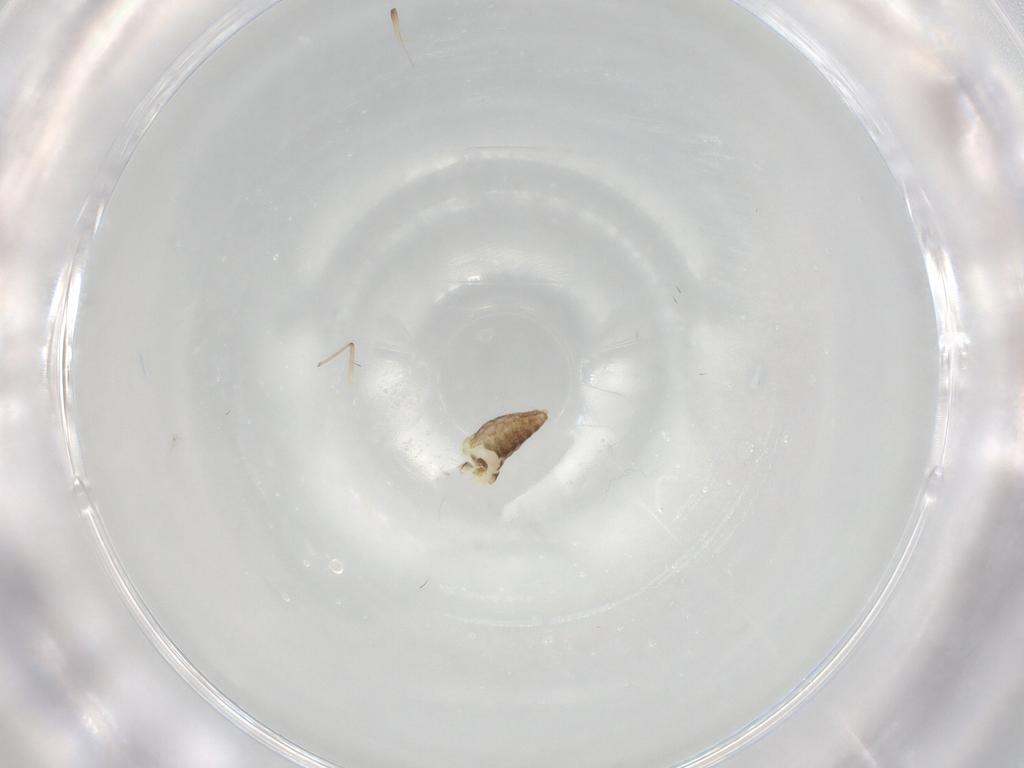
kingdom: Animalia
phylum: Arthropoda
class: Insecta
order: Diptera
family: Chironomidae
